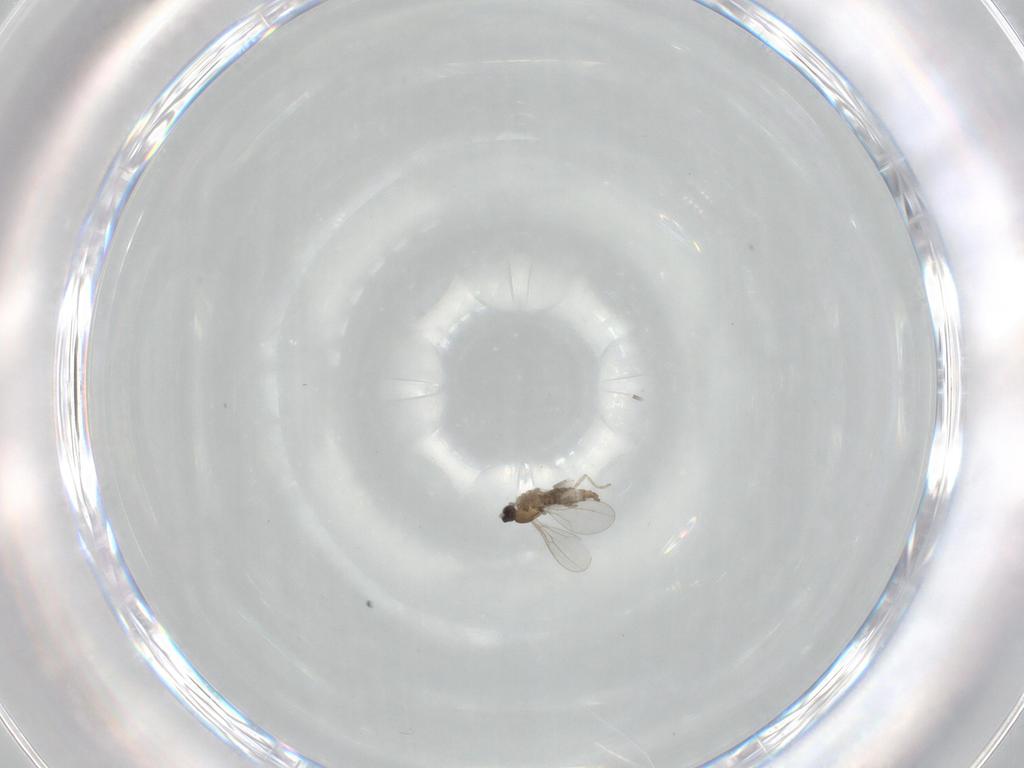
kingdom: Animalia
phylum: Arthropoda
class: Insecta
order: Diptera
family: Cecidomyiidae
